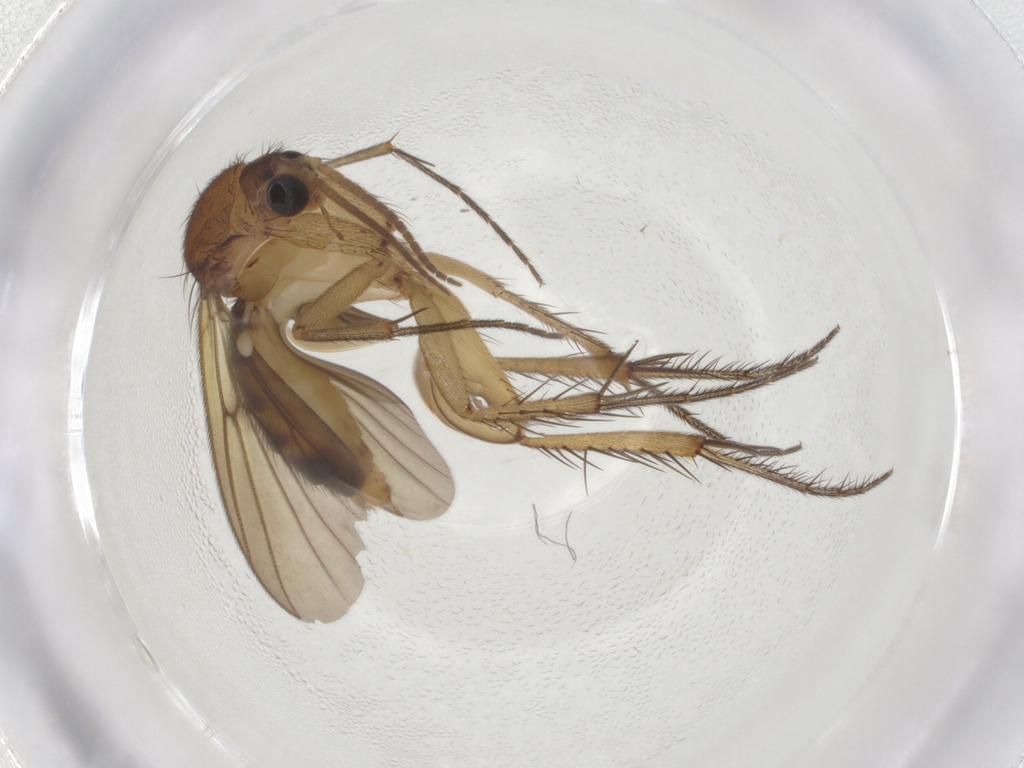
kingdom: Animalia
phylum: Arthropoda
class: Insecta
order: Diptera
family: Mycetophilidae
